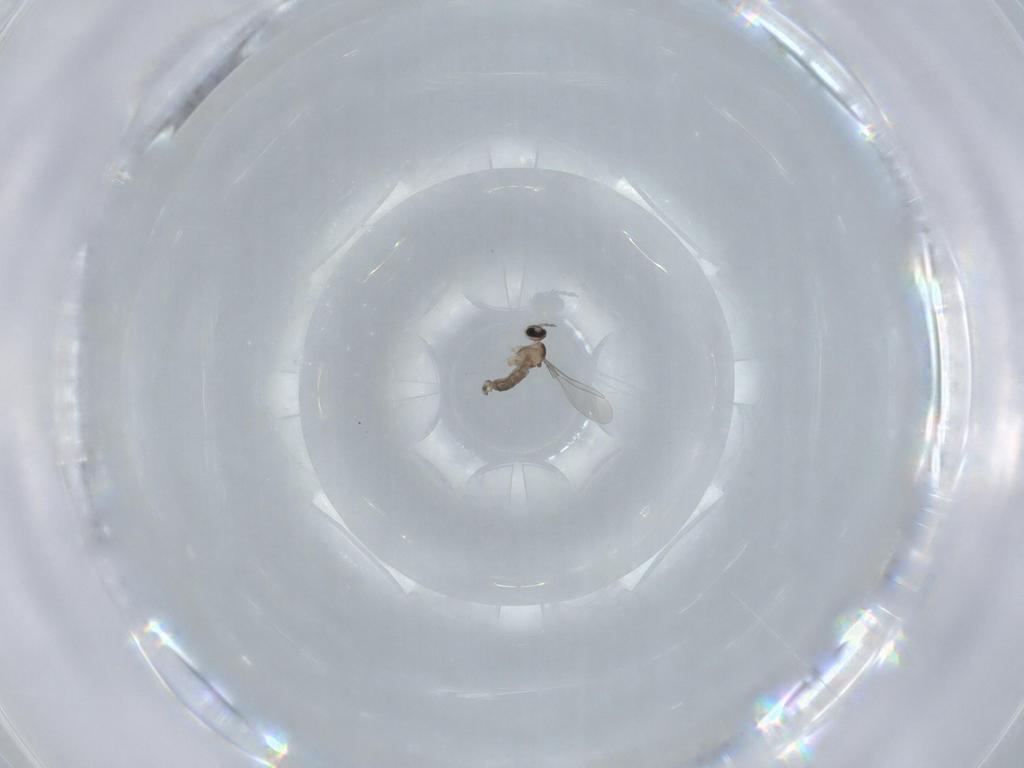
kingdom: Animalia
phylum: Arthropoda
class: Insecta
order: Diptera
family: Cecidomyiidae
